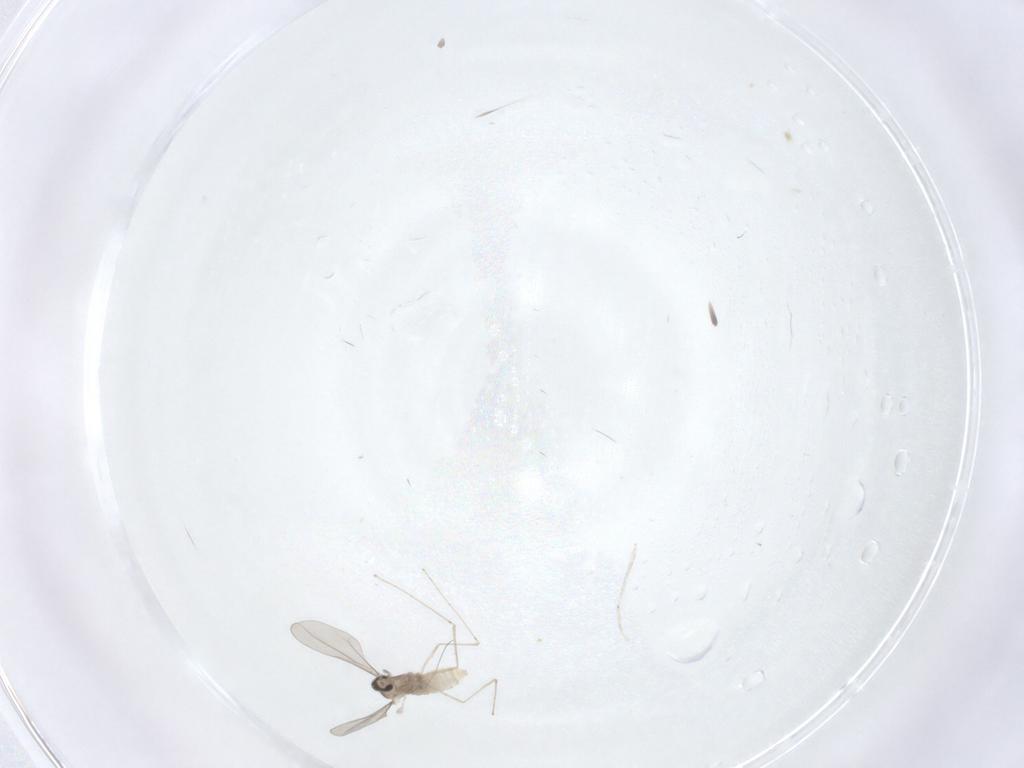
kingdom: Animalia
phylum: Arthropoda
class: Insecta
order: Diptera
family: Cecidomyiidae
